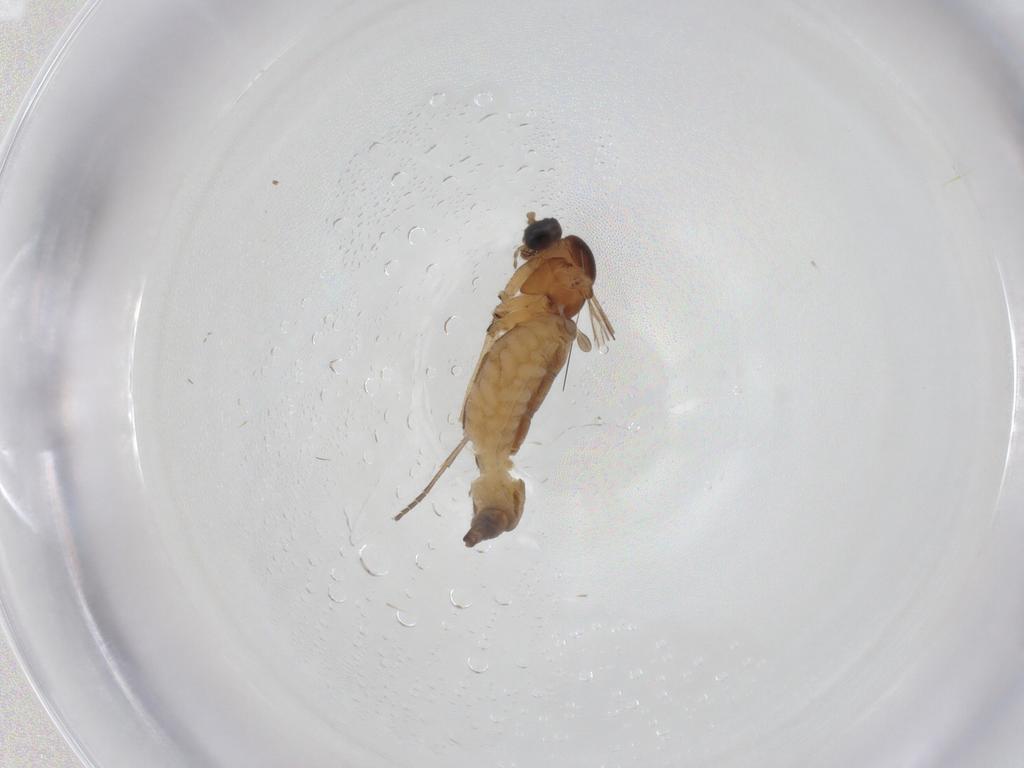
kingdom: Animalia
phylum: Arthropoda
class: Insecta
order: Diptera
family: Sciaridae
